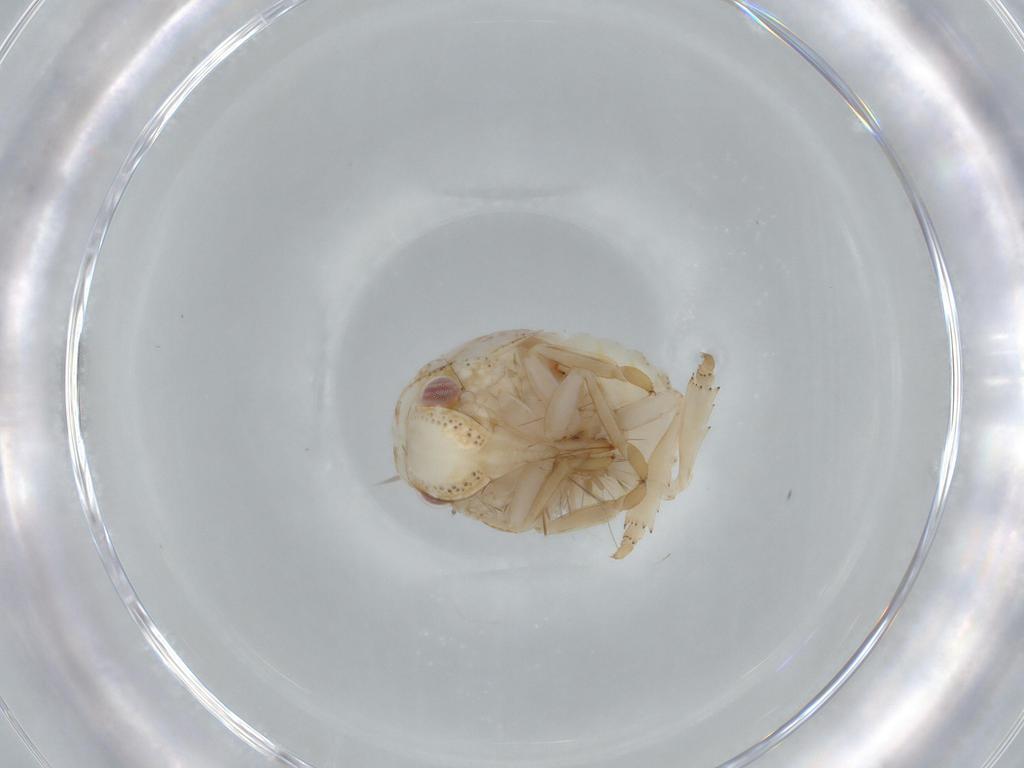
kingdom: Animalia
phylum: Arthropoda
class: Insecta
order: Hemiptera
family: Acanaloniidae
